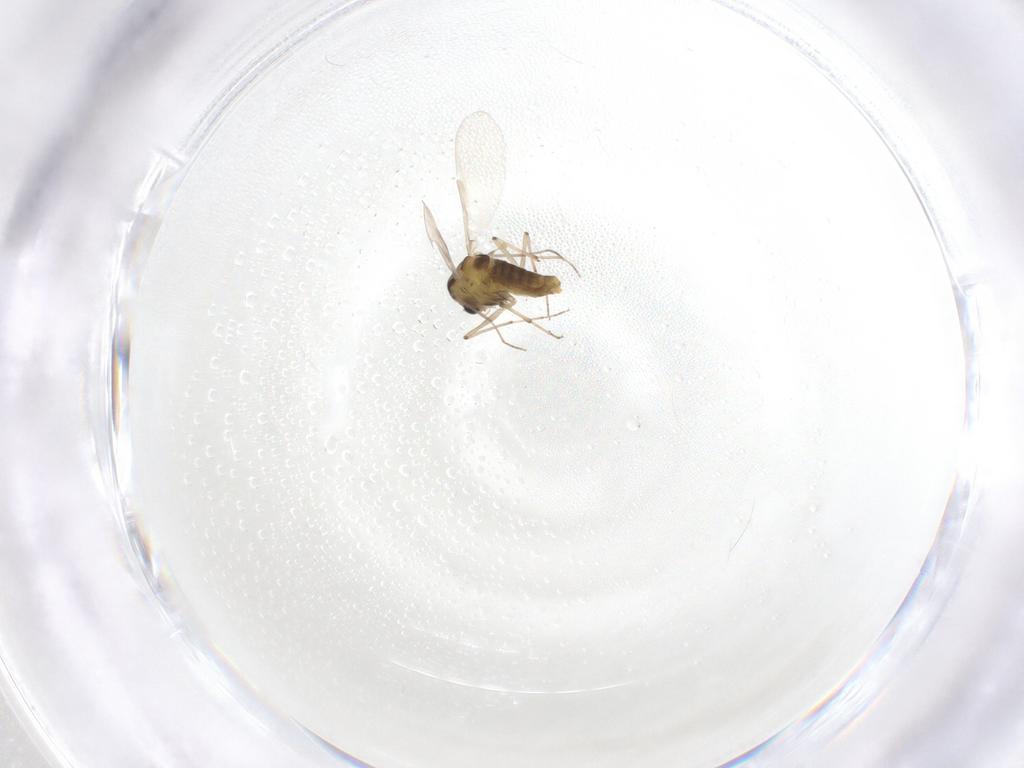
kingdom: Animalia
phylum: Arthropoda
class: Insecta
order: Diptera
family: Chironomidae
